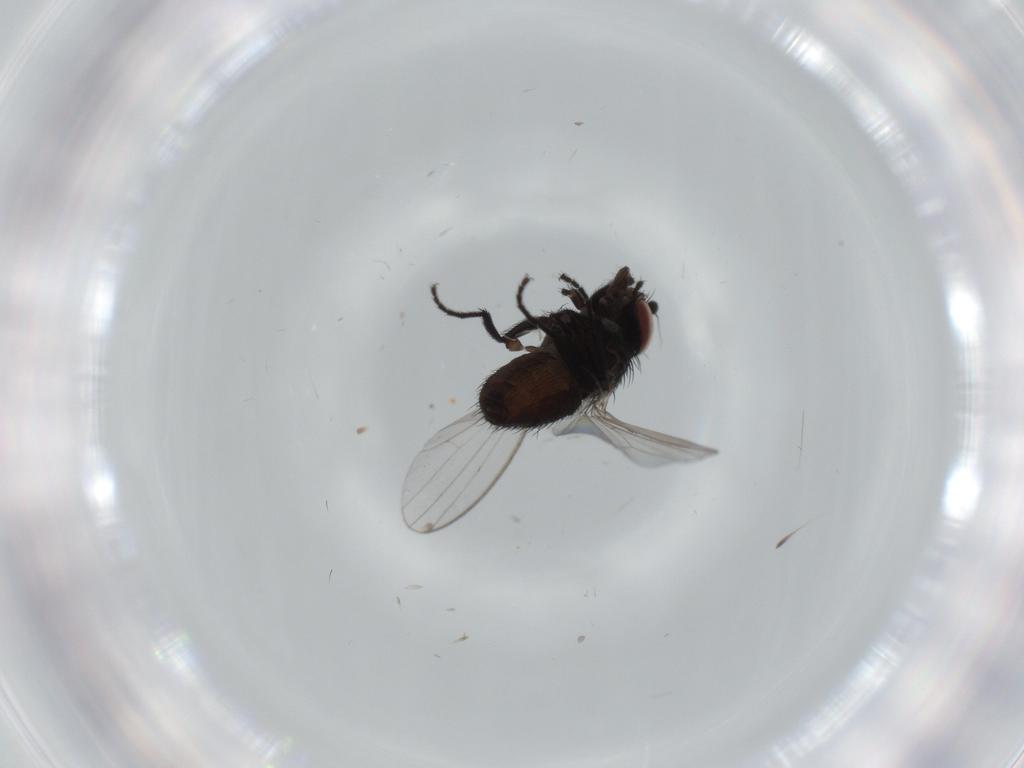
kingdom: Animalia
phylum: Arthropoda
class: Insecta
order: Diptera
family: Milichiidae
